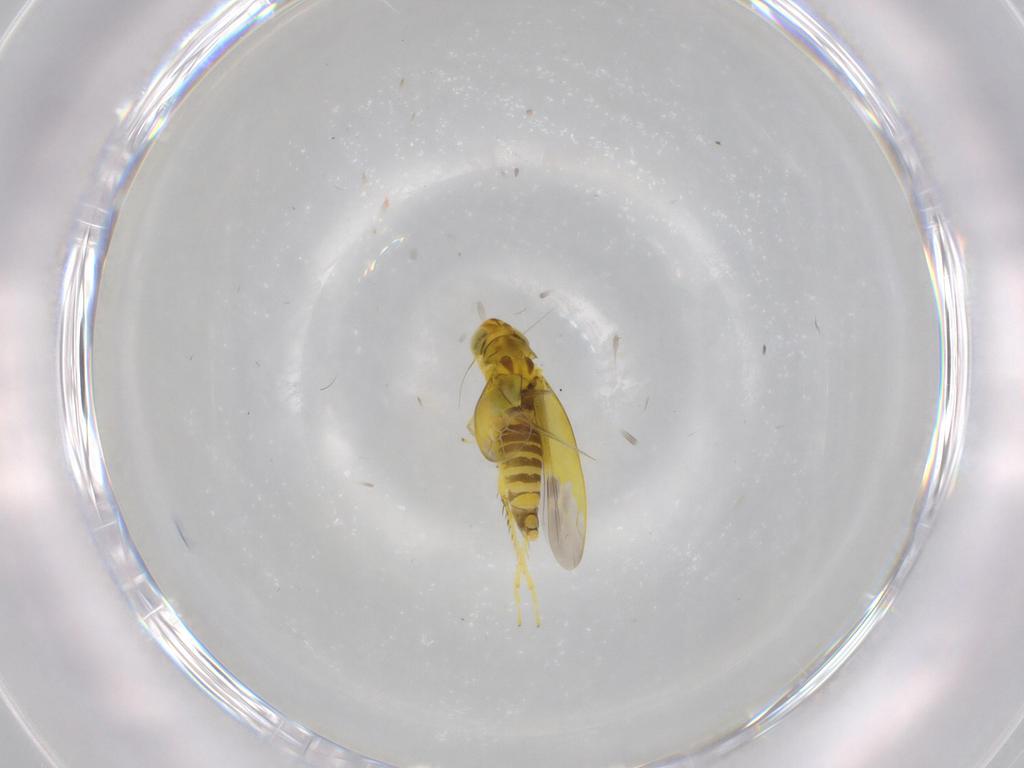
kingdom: Animalia
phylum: Arthropoda
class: Insecta
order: Hemiptera
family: Cicadellidae
